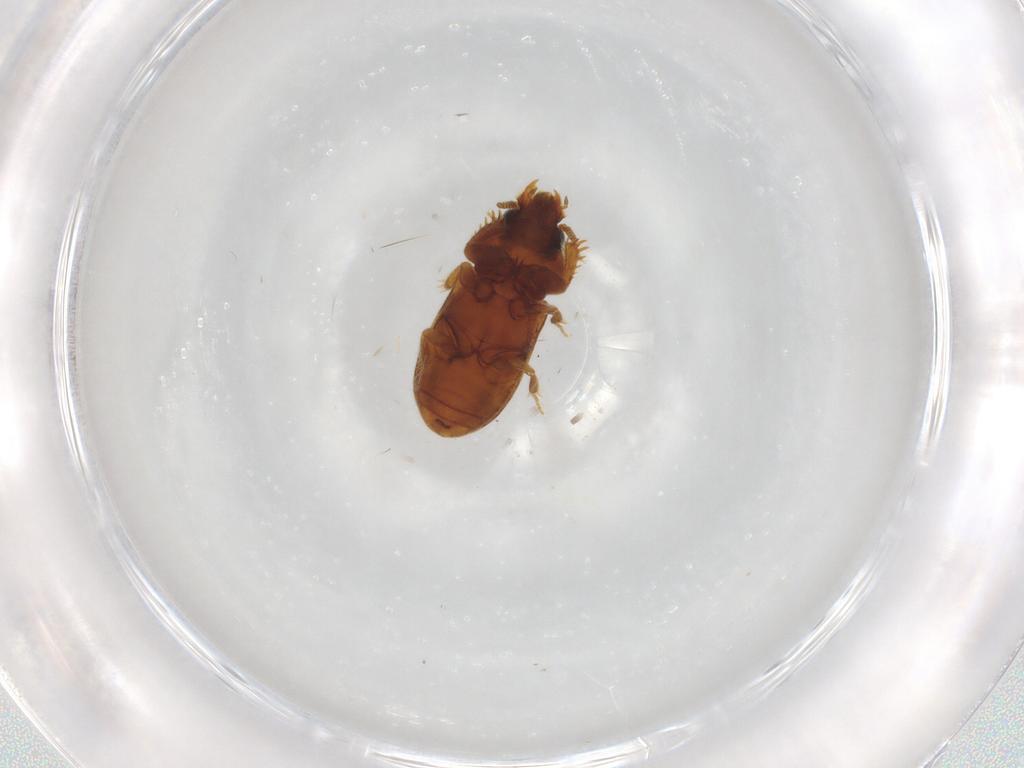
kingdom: Animalia
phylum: Arthropoda
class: Insecta
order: Coleoptera
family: Heteroceridae
